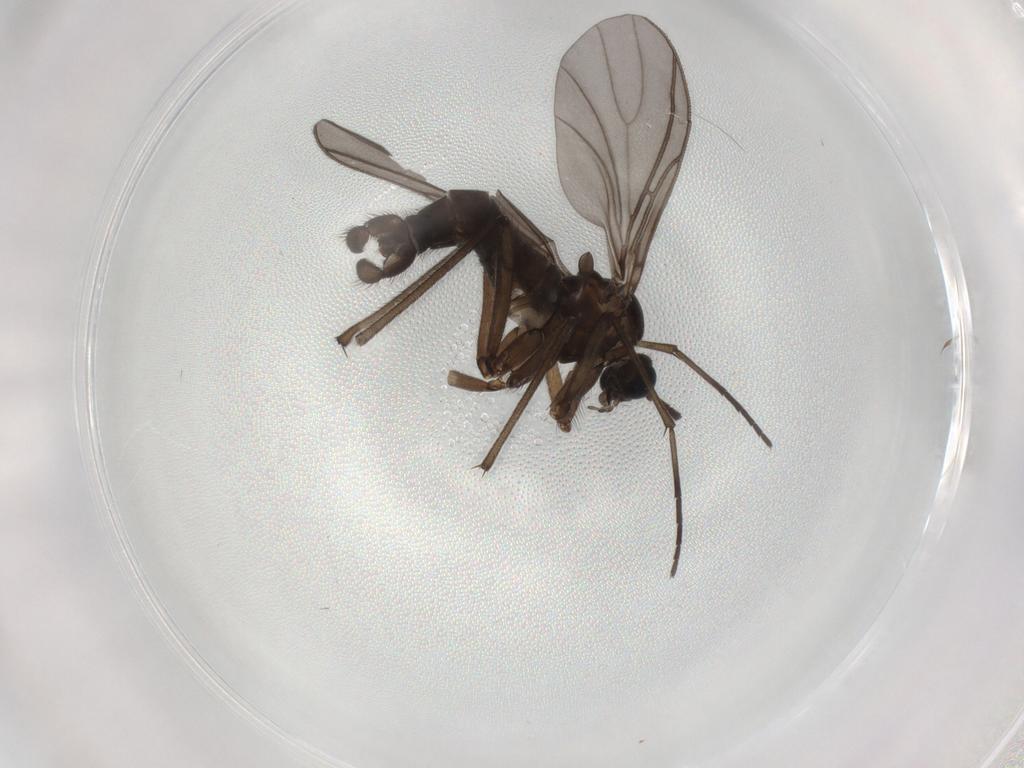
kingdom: Animalia
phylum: Arthropoda
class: Insecta
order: Diptera
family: Sciaridae
